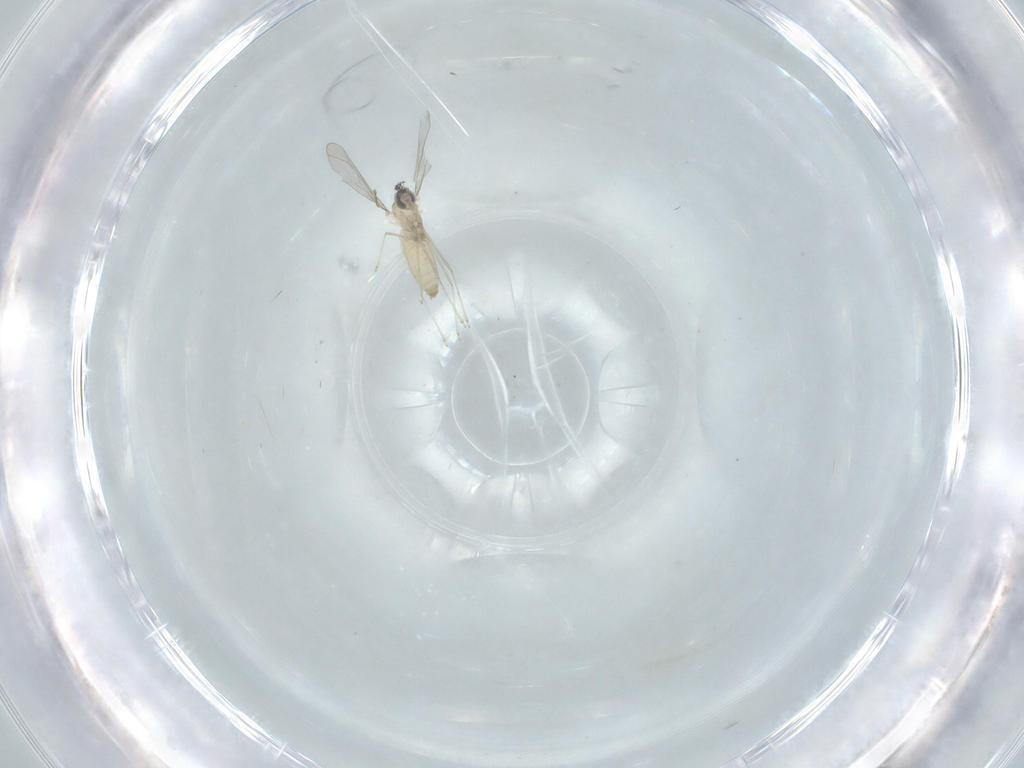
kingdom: Animalia
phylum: Arthropoda
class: Insecta
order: Diptera
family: Cecidomyiidae
